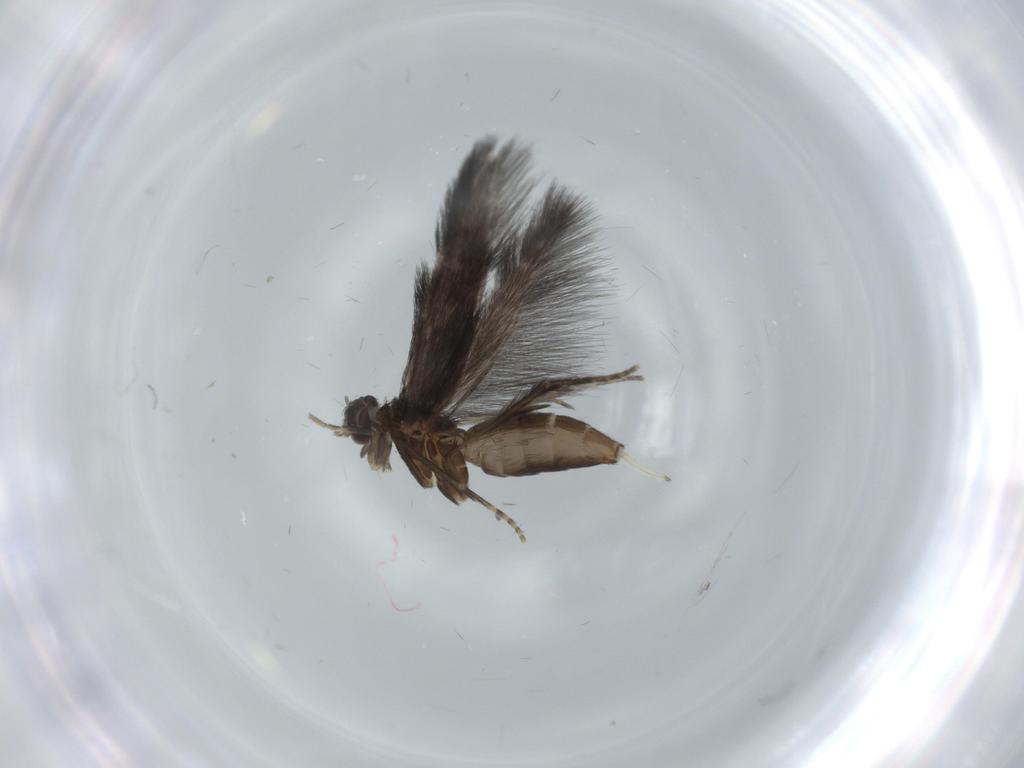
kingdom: Animalia
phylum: Arthropoda
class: Insecta
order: Trichoptera
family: Hydroptilidae
